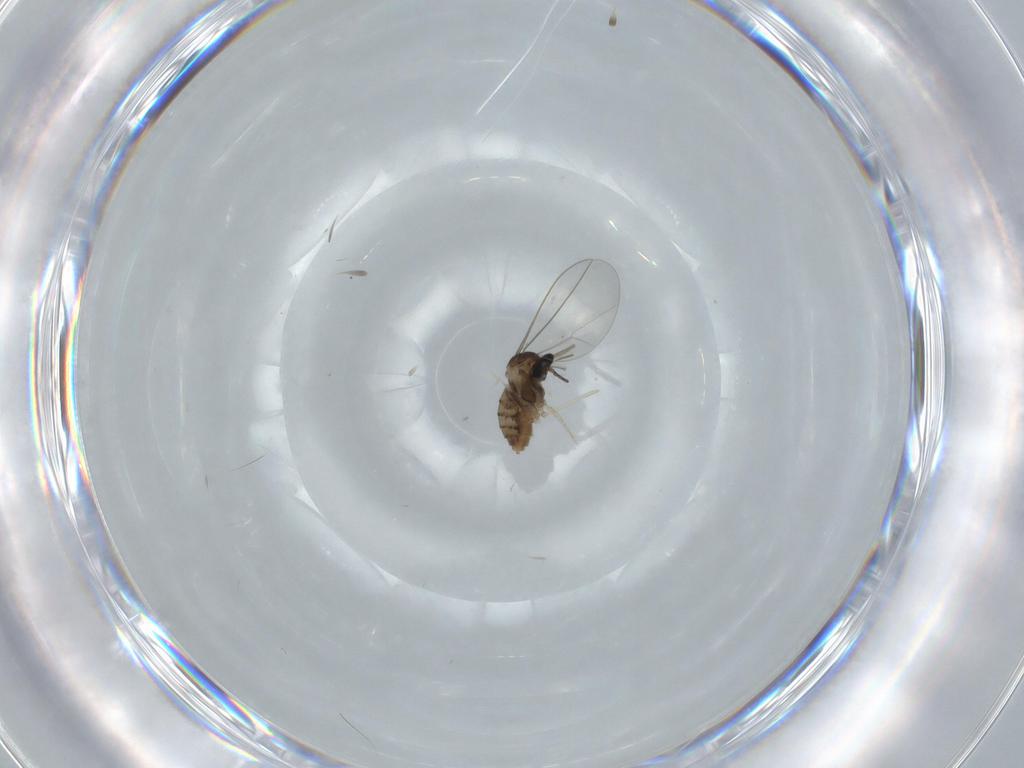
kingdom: Animalia
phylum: Arthropoda
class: Insecta
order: Diptera
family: Cecidomyiidae
